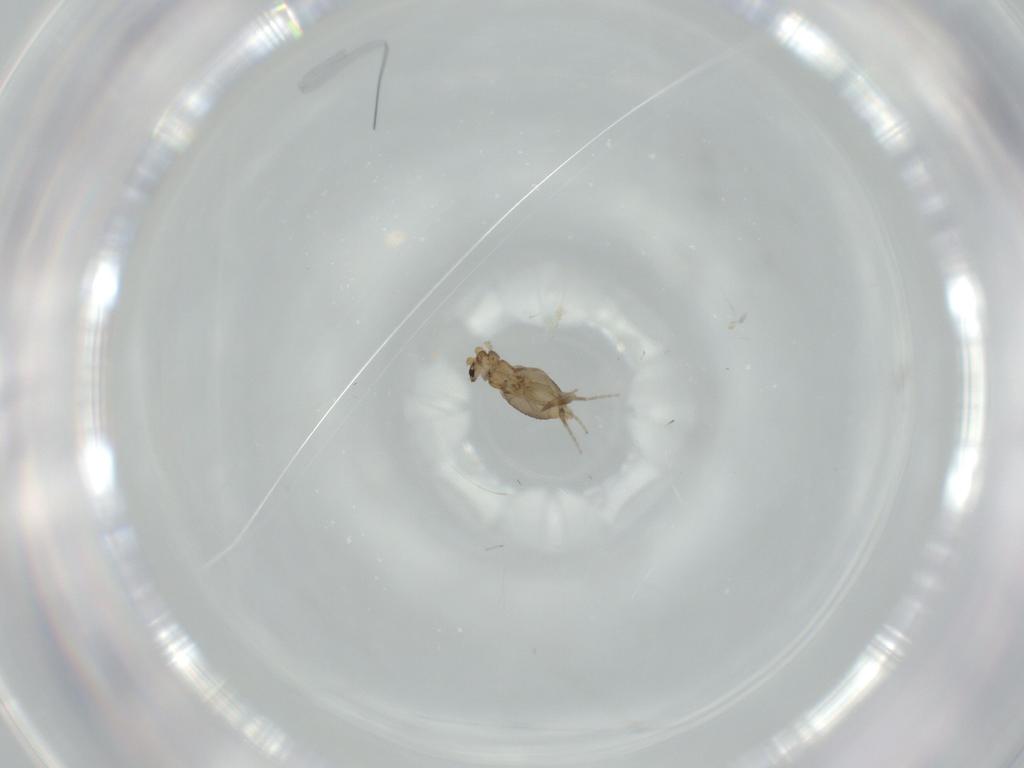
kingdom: Animalia
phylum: Arthropoda
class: Insecta
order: Diptera
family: Phoridae
